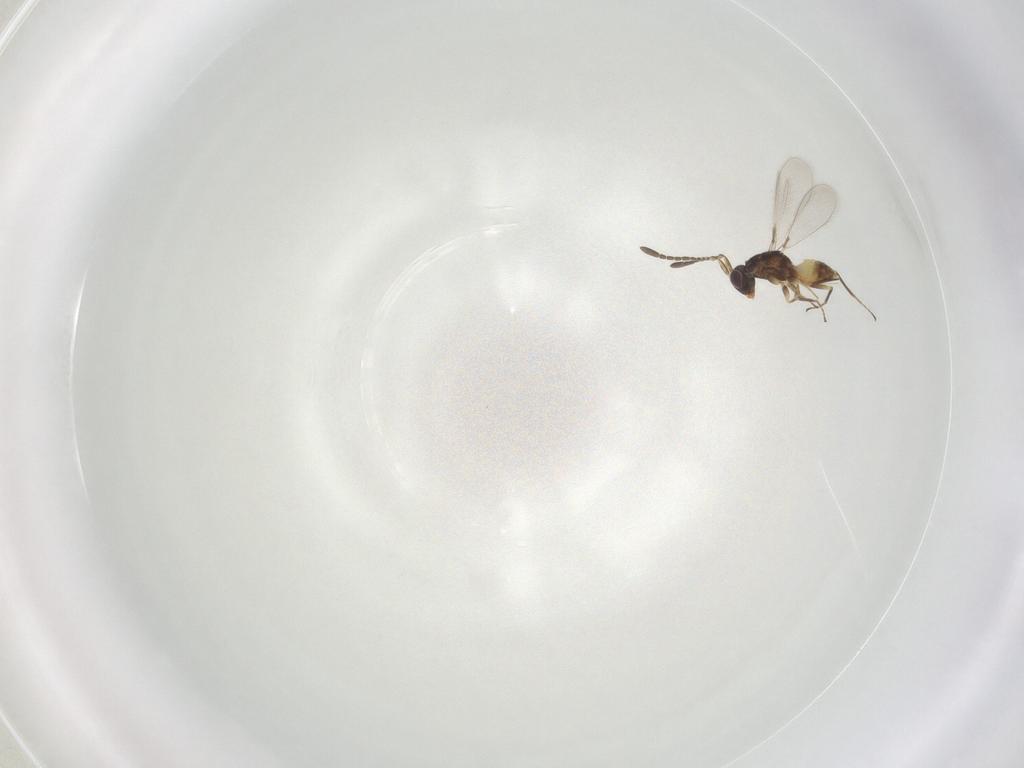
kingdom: Animalia
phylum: Arthropoda
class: Insecta
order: Hymenoptera
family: Mymaridae
